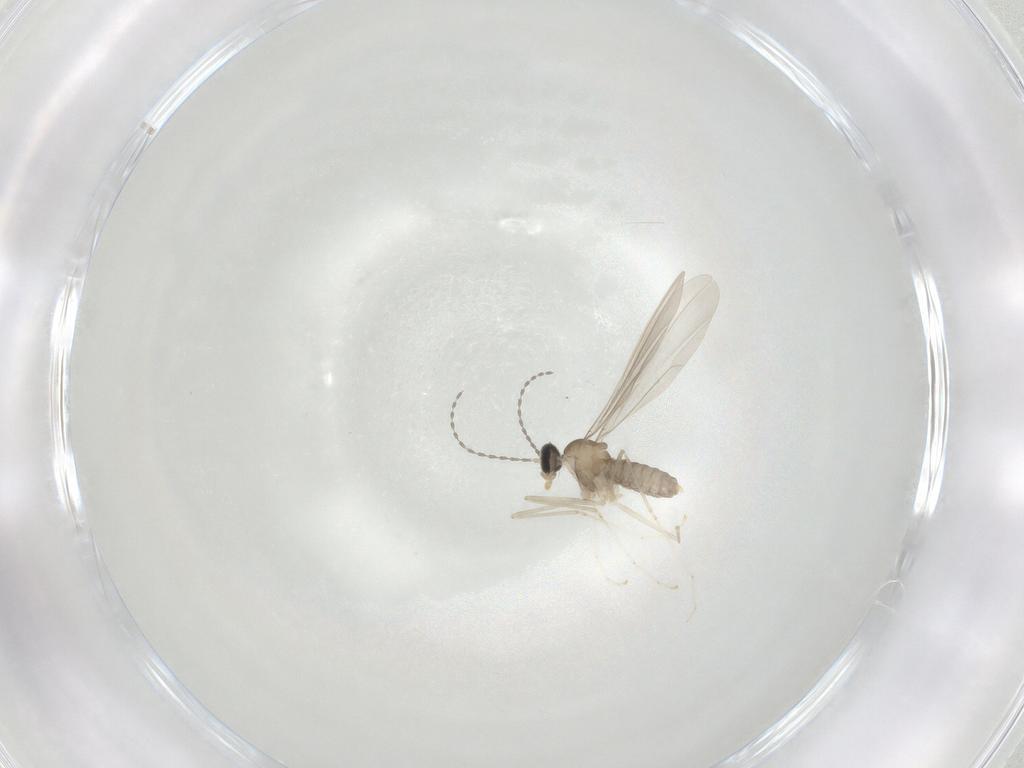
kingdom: Animalia
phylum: Arthropoda
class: Insecta
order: Diptera
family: Cecidomyiidae
